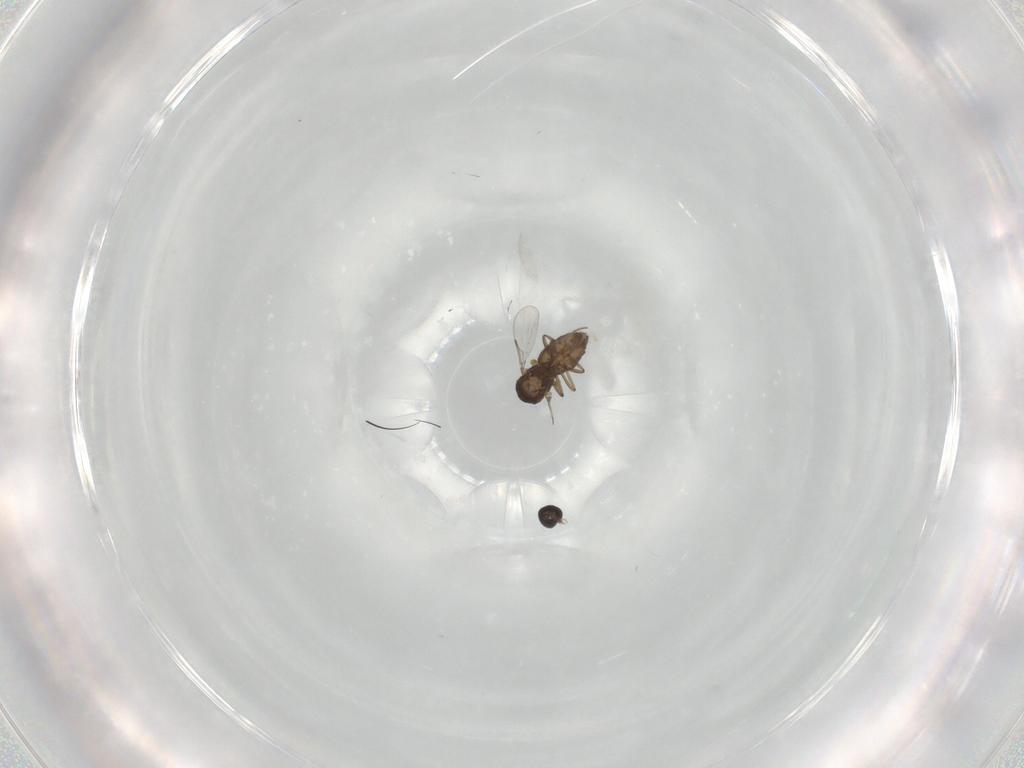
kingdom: Animalia
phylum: Arthropoda
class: Insecta
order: Diptera
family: Ceratopogonidae
